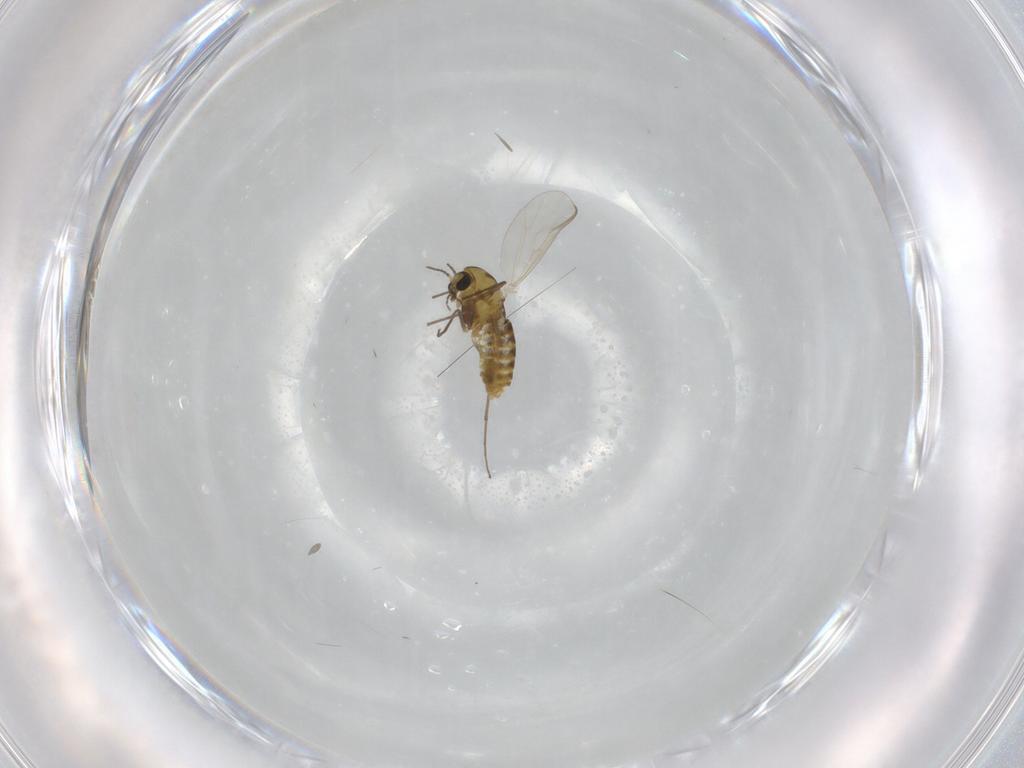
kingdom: Animalia
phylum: Arthropoda
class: Insecta
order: Diptera
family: Chironomidae
